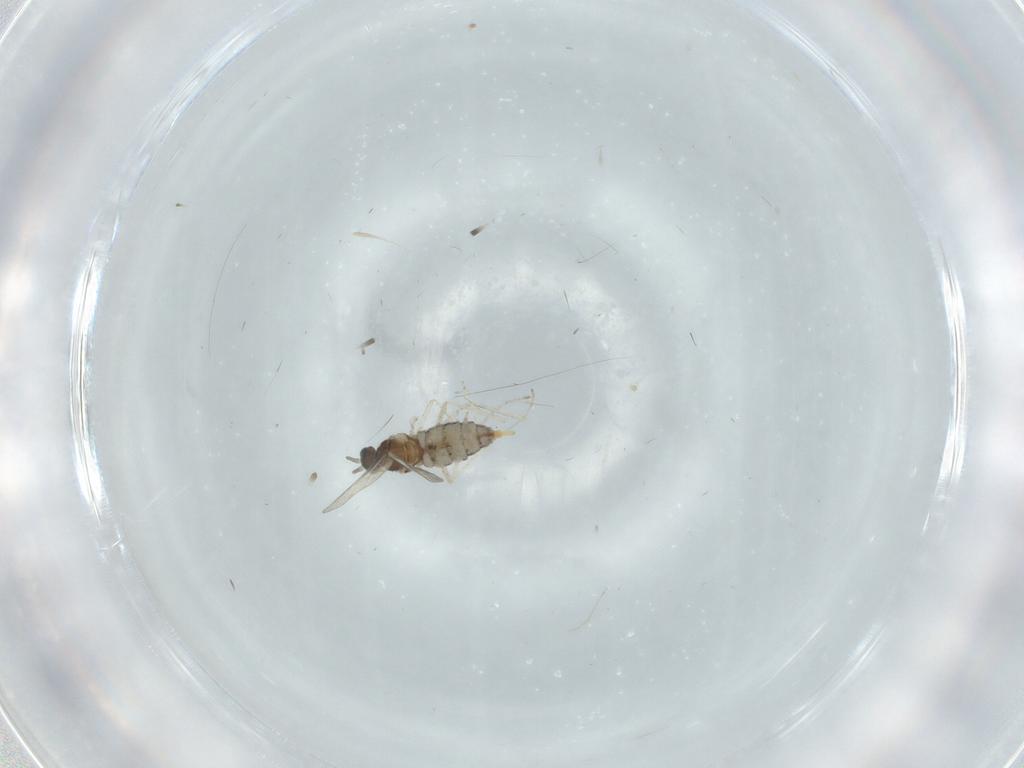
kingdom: Animalia
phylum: Arthropoda
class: Insecta
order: Diptera
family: Cecidomyiidae
